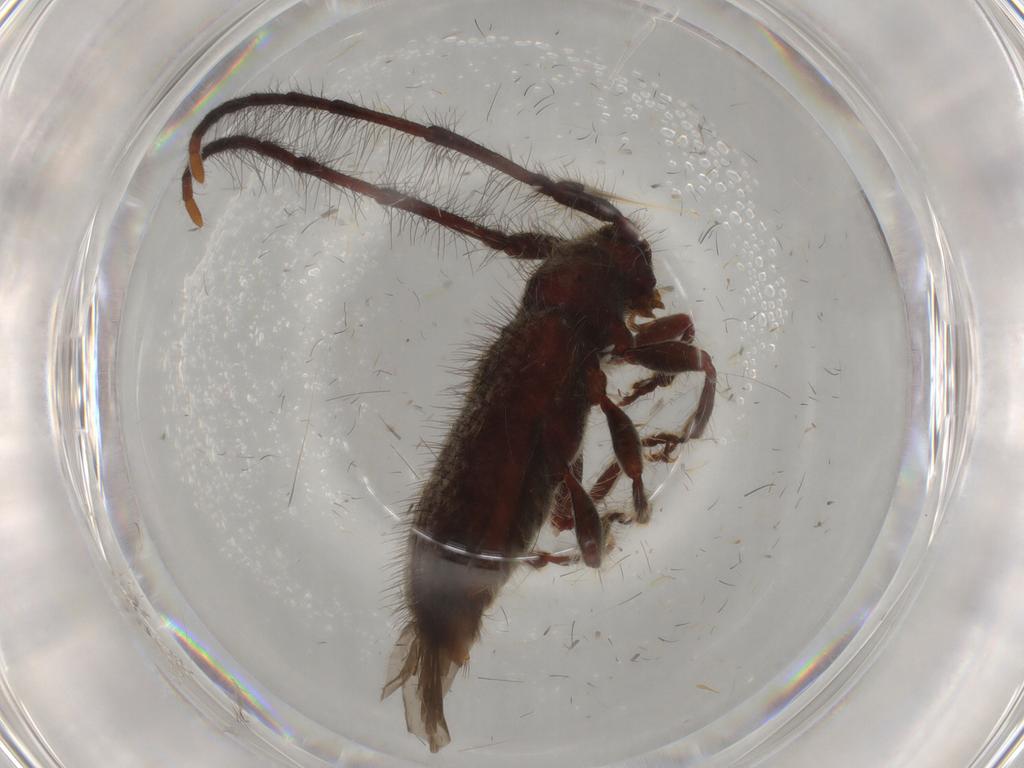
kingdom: Animalia
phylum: Arthropoda
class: Insecta
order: Coleoptera
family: Cerambycidae
